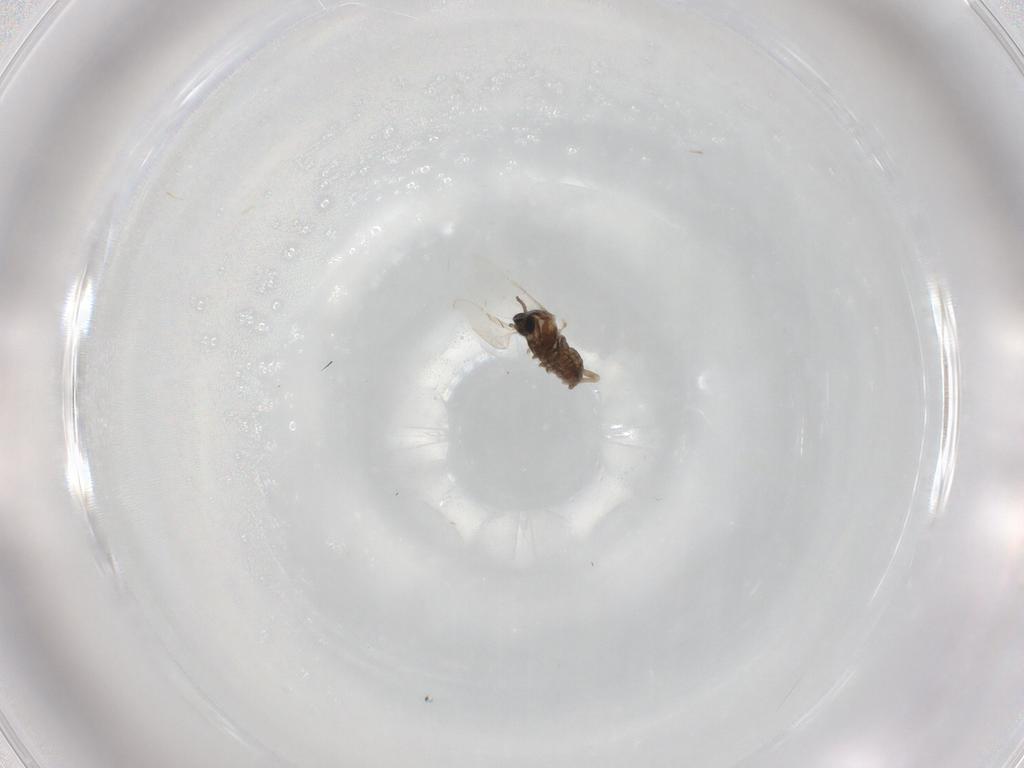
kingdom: Animalia
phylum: Arthropoda
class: Insecta
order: Diptera
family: Cecidomyiidae
